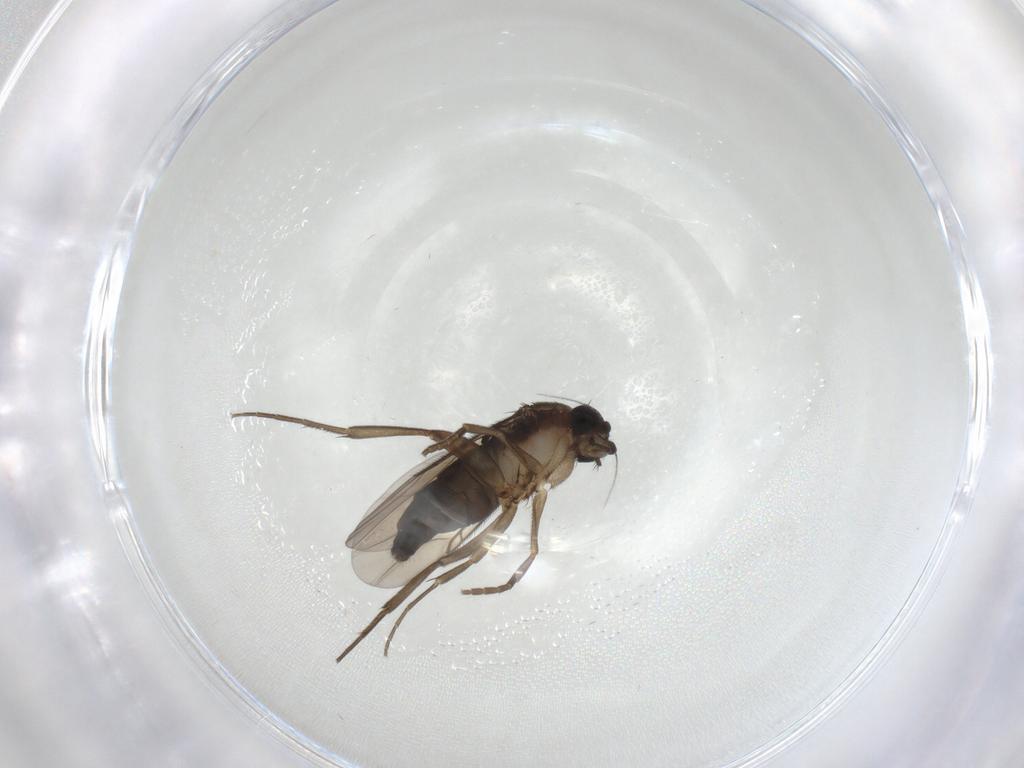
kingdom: Animalia
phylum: Arthropoda
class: Insecta
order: Diptera
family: Phoridae
